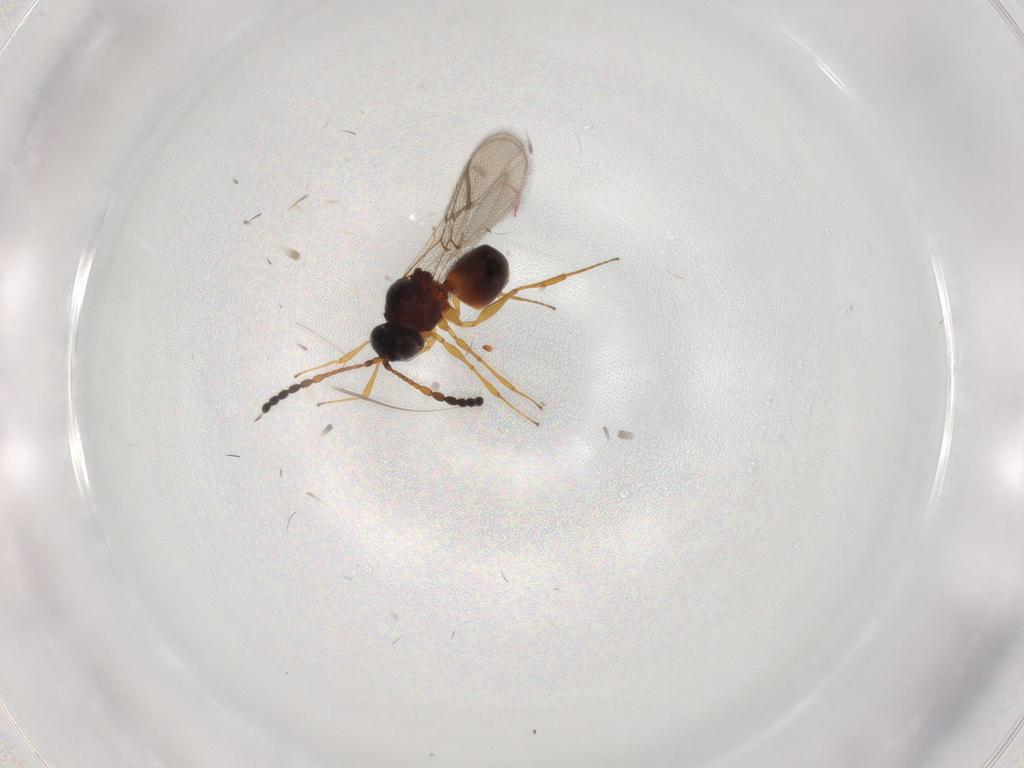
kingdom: Animalia
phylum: Arthropoda
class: Insecta
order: Hymenoptera
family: Figitidae
